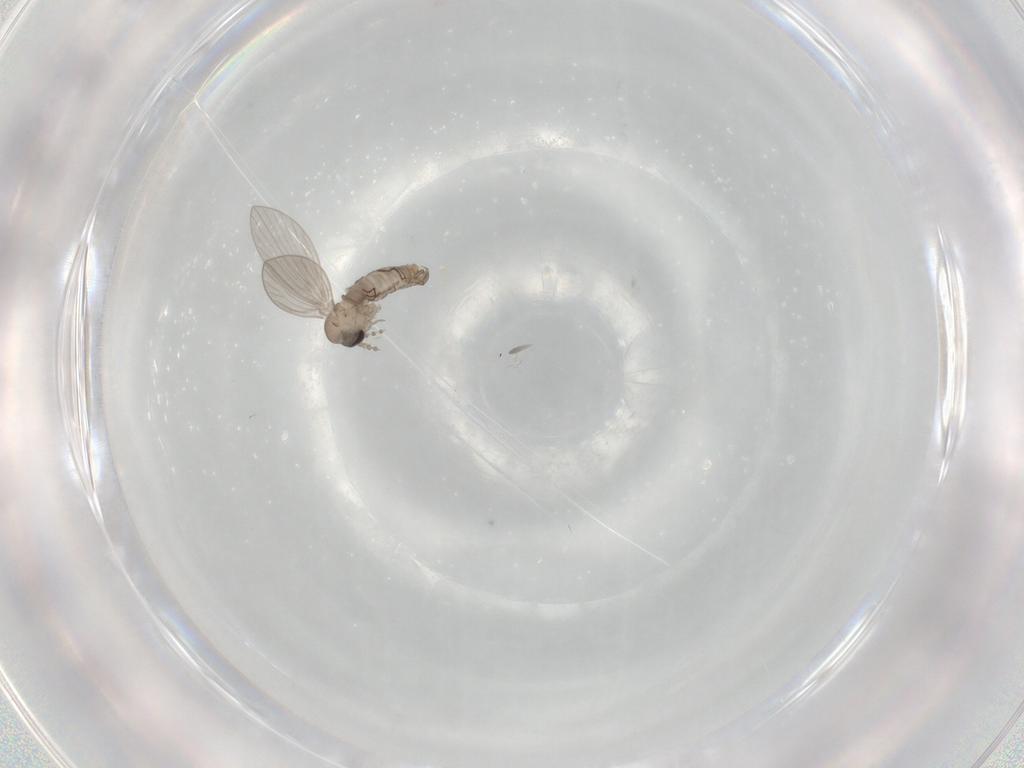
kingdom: Animalia
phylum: Arthropoda
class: Insecta
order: Diptera
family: Psychodidae
